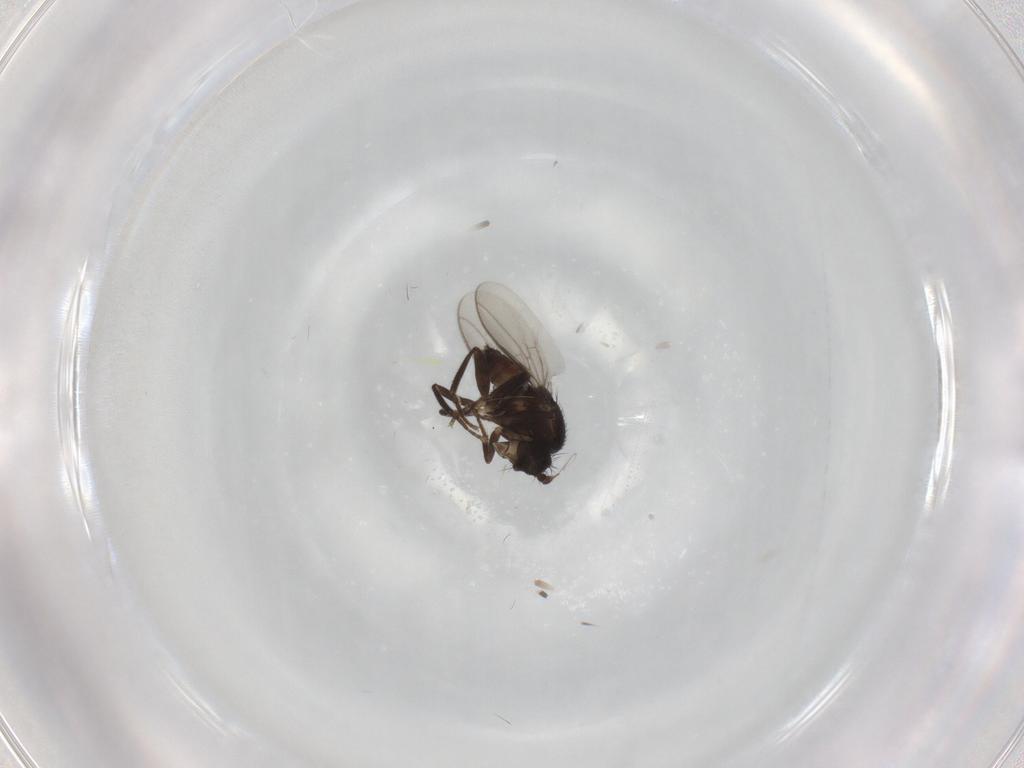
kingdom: Animalia
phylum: Arthropoda
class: Insecta
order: Diptera
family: Sphaeroceridae
